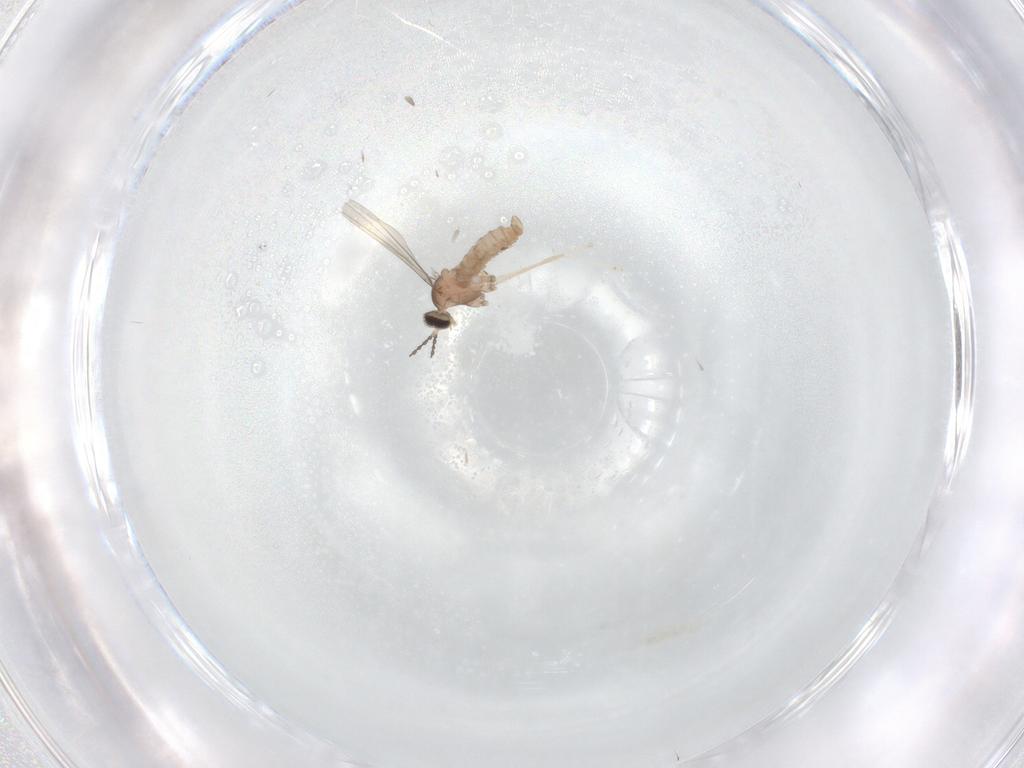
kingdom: Animalia
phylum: Arthropoda
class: Insecta
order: Diptera
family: Cecidomyiidae
